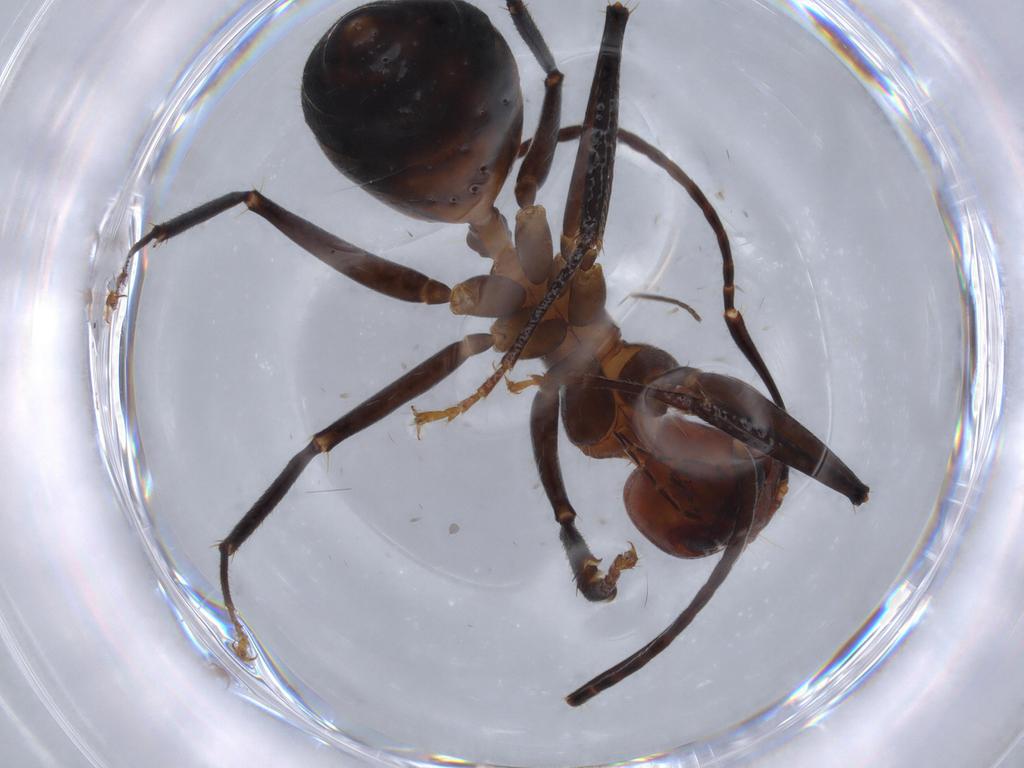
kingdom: Animalia
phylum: Arthropoda
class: Insecta
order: Hymenoptera
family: Formicidae
